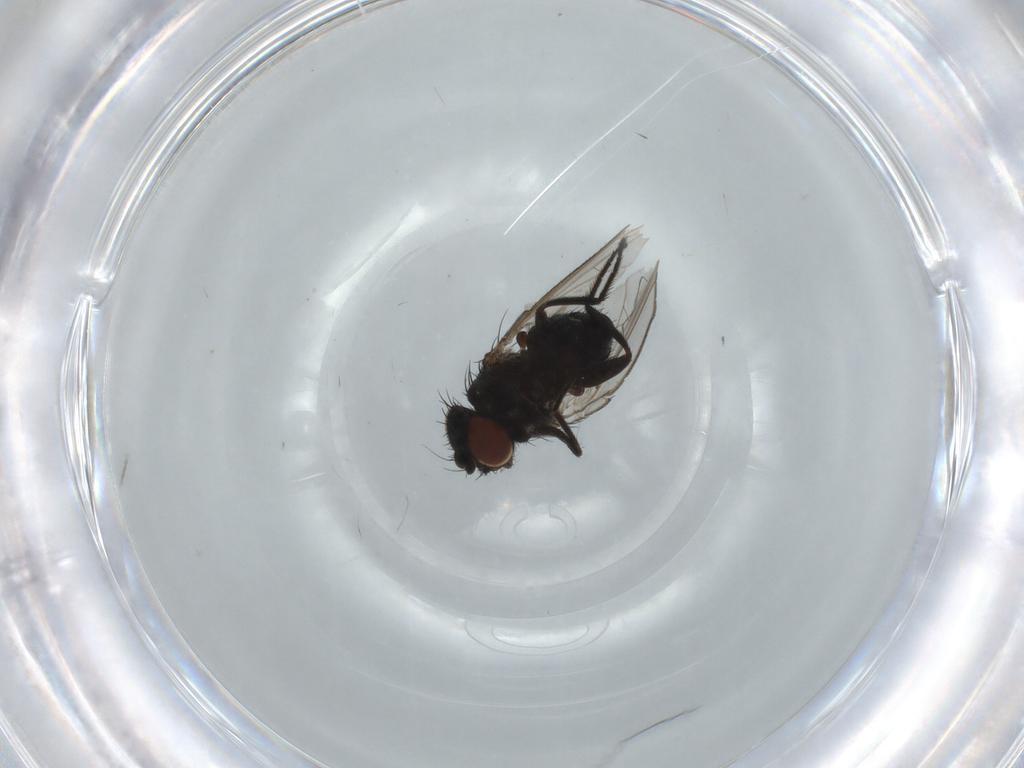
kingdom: Animalia
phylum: Arthropoda
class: Insecta
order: Diptera
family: Milichiidae
